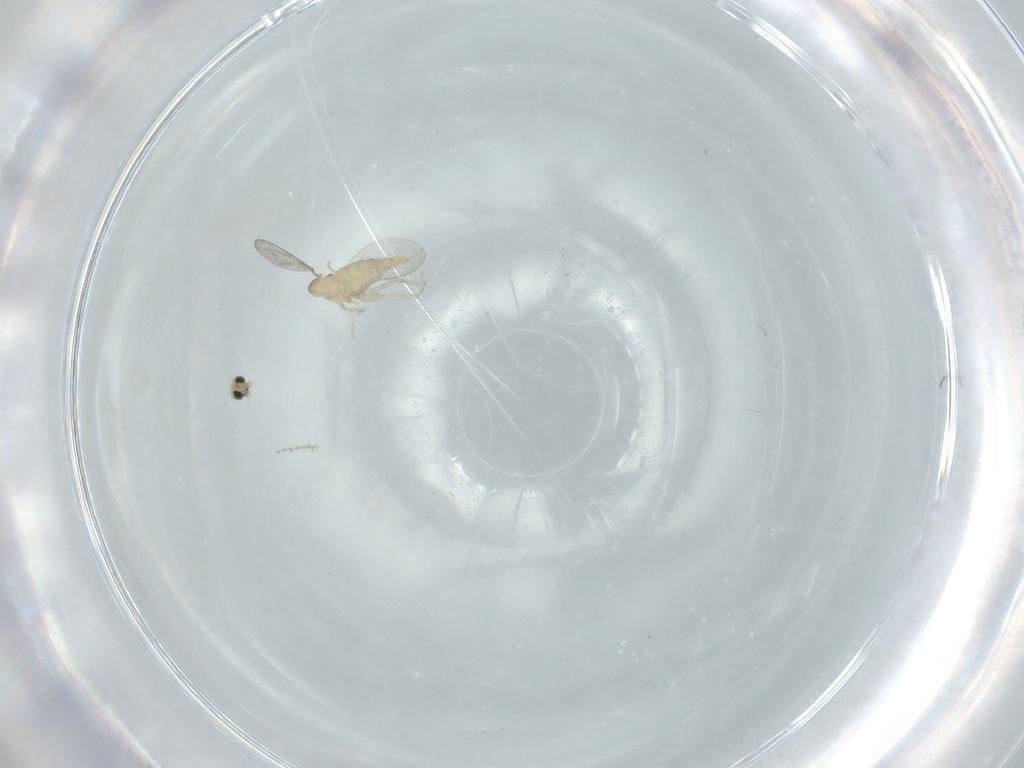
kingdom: Animalia
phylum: Arthropoda
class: Insecta
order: Diptera
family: Cecidomyiidae
